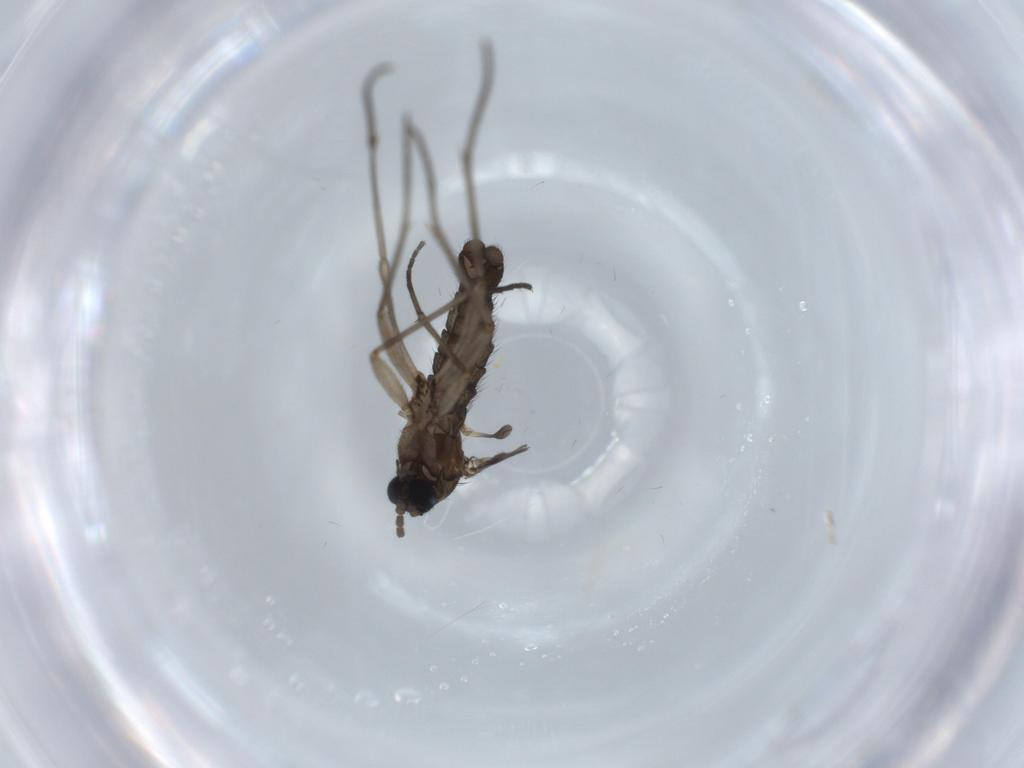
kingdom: Animalia
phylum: Arthropoda
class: Insecta
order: Diptera
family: Sciaridae
